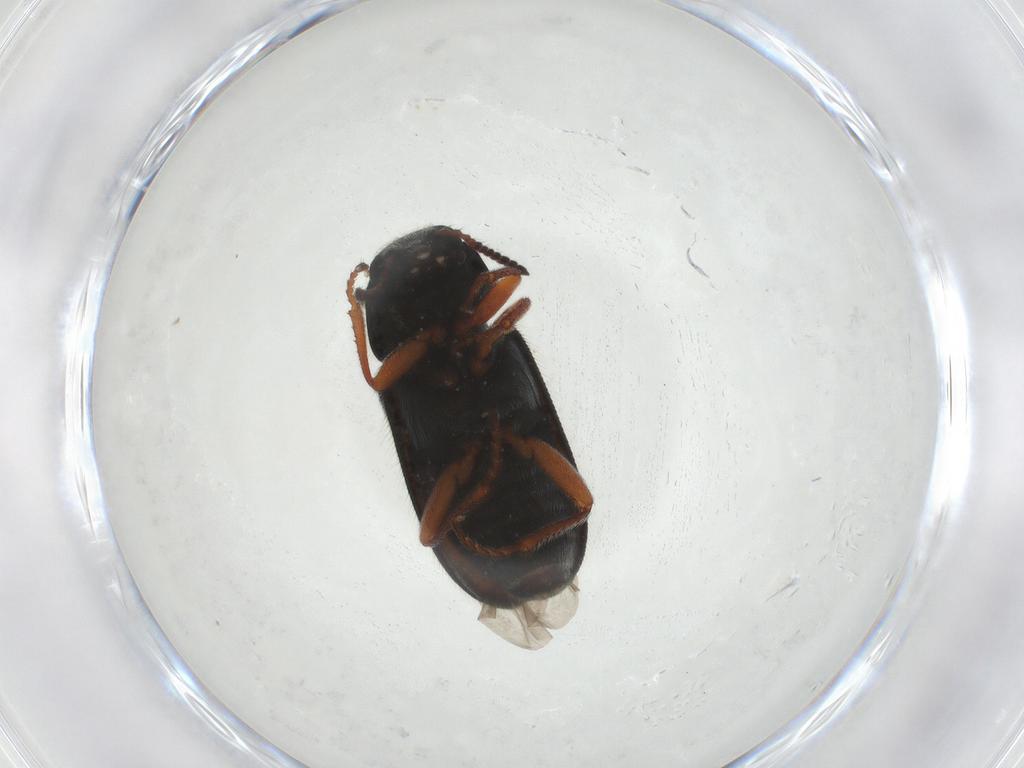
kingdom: Animalia
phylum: Arthropoda
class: Insecta
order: Coleoptera
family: Melyridae
